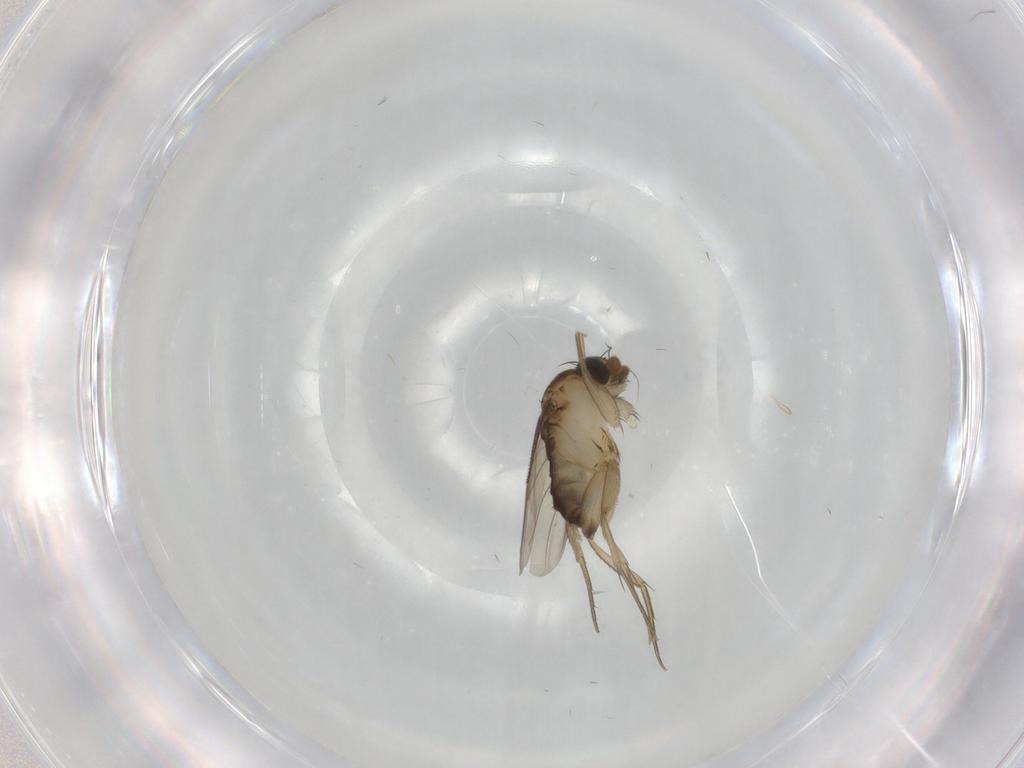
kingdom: Animalia
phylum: Arthropoda
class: Insecta
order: Diptera
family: Phoridae
